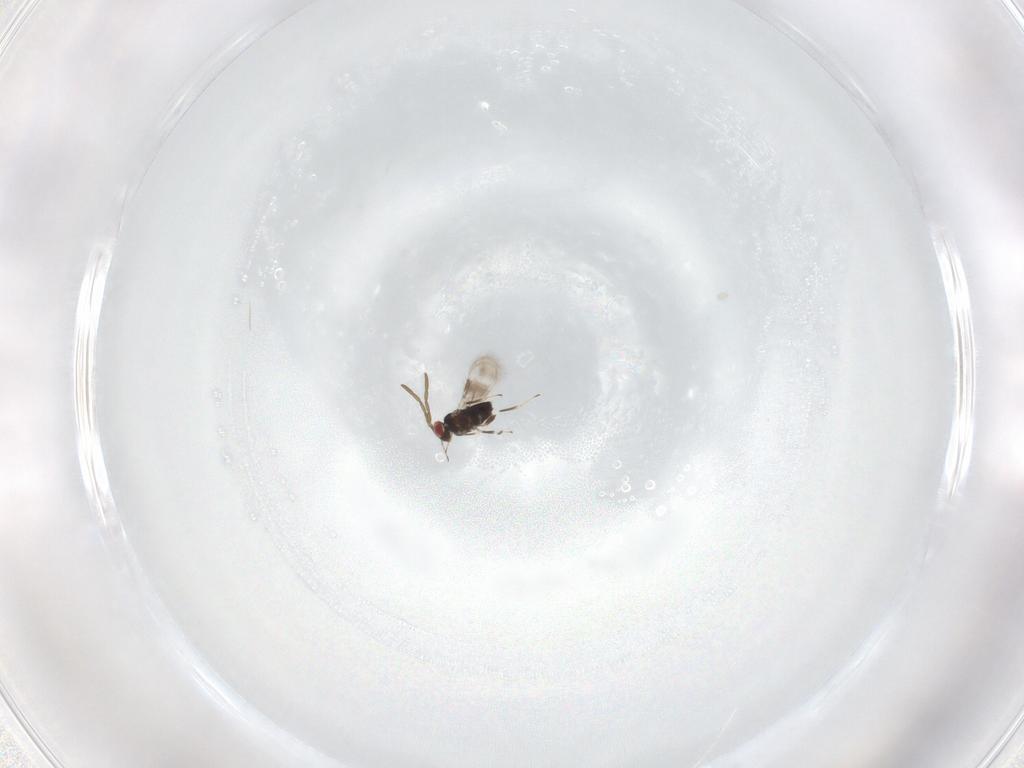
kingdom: Animalia
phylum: Arthropoda
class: Insecta
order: Hymenoptera
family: Azotidae
